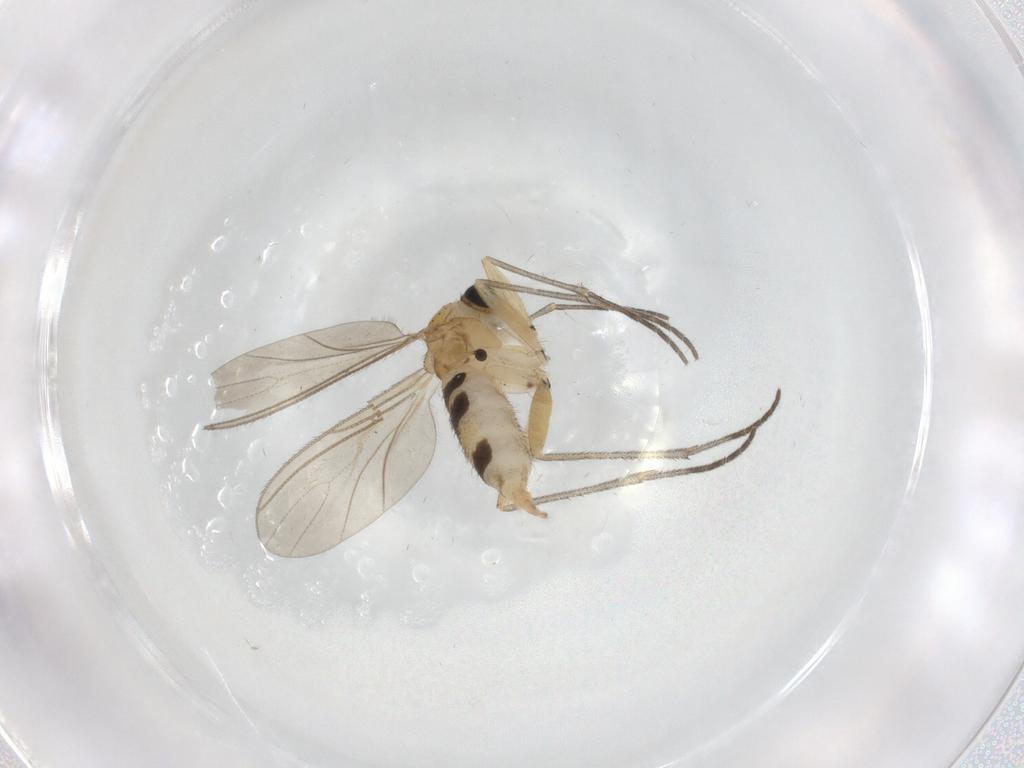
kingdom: Animalia
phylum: Arthropoda
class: Insecta
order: Diptera
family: Sciaridae
